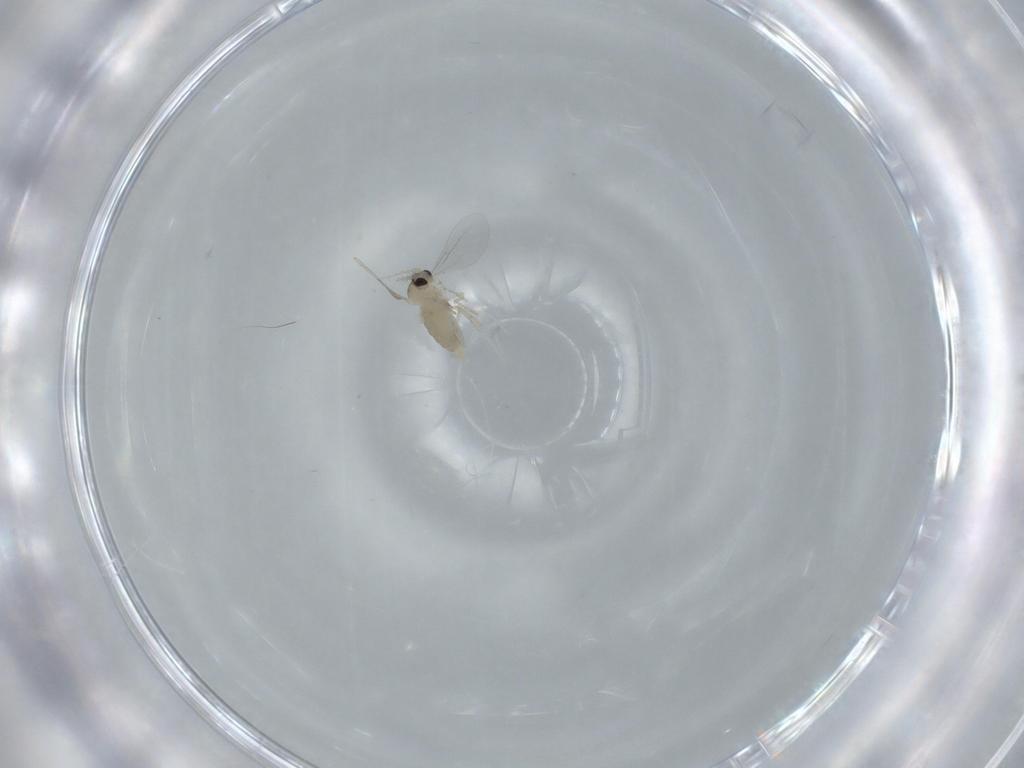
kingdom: Animalia
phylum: Arthropoda
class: Insecta
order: Diptera
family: Cecidomyiidae
